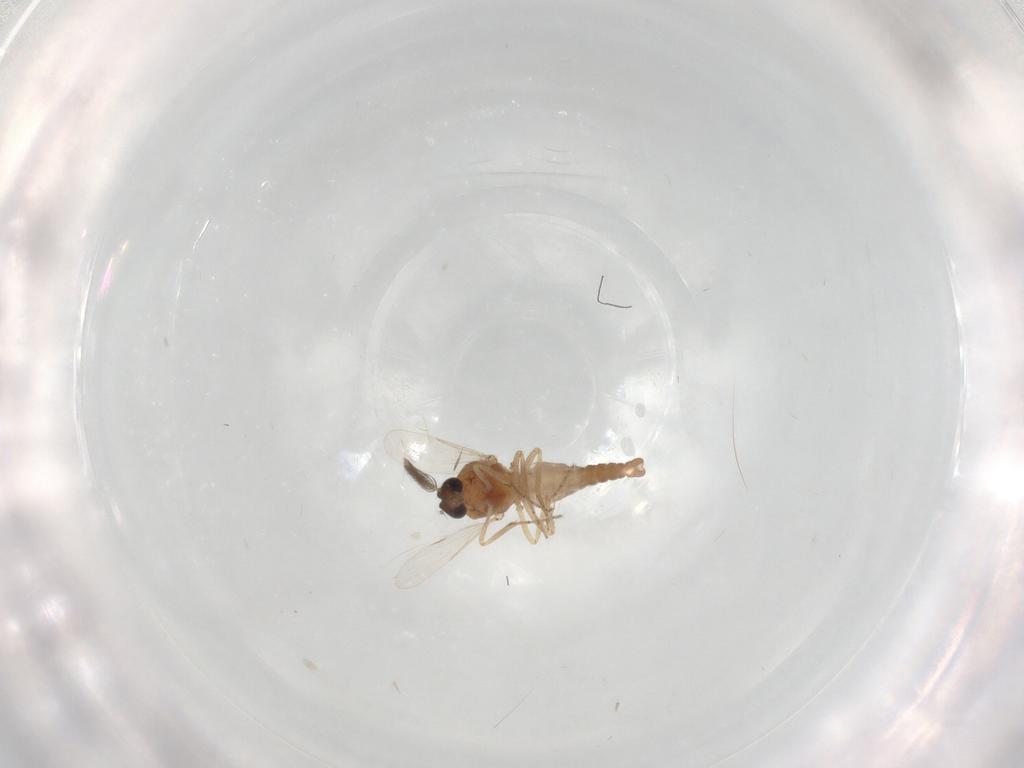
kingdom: Animalia
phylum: Arthropoda
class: Insecta
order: Diptera
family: Ceratopogonidae
